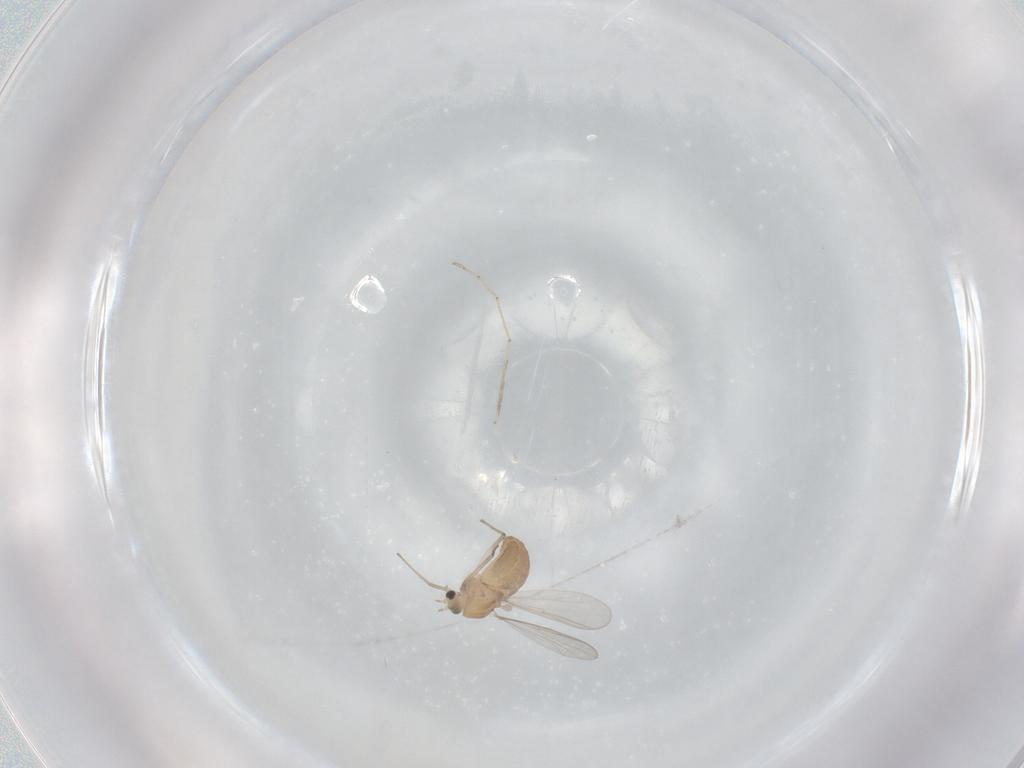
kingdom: Animalia
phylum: Arthropoda
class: Insecta
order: Diptera
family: Chironomidae
